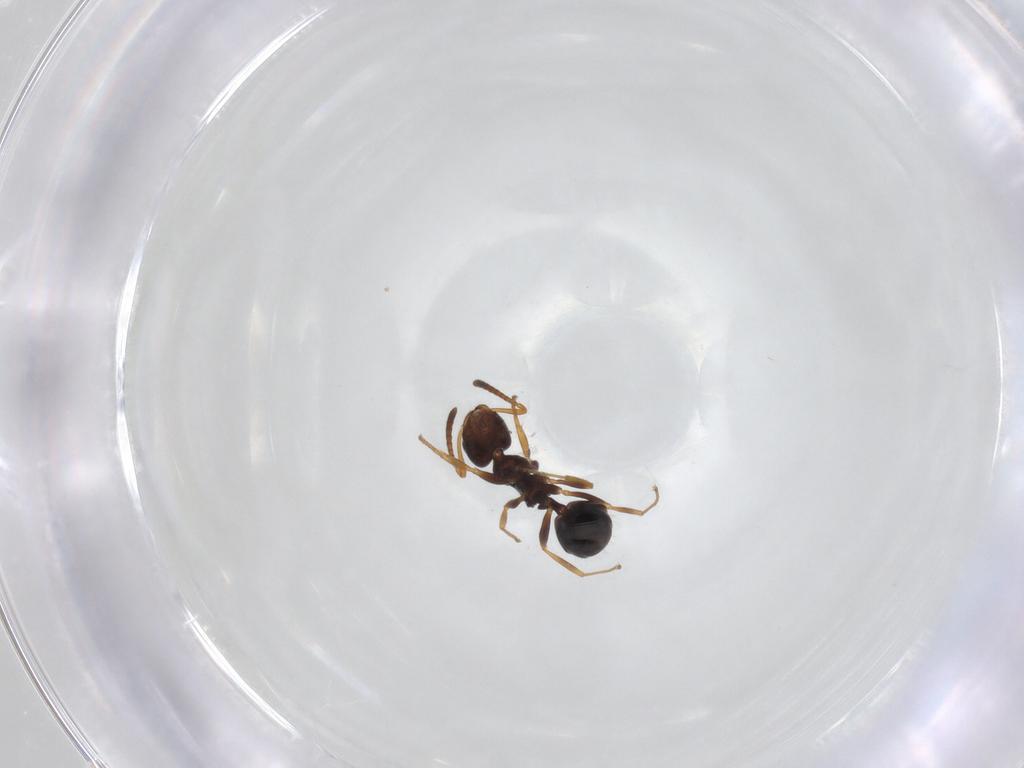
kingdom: Animalia
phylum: Arthropoda
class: Insecta
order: Hymenoptera
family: Formicidae
